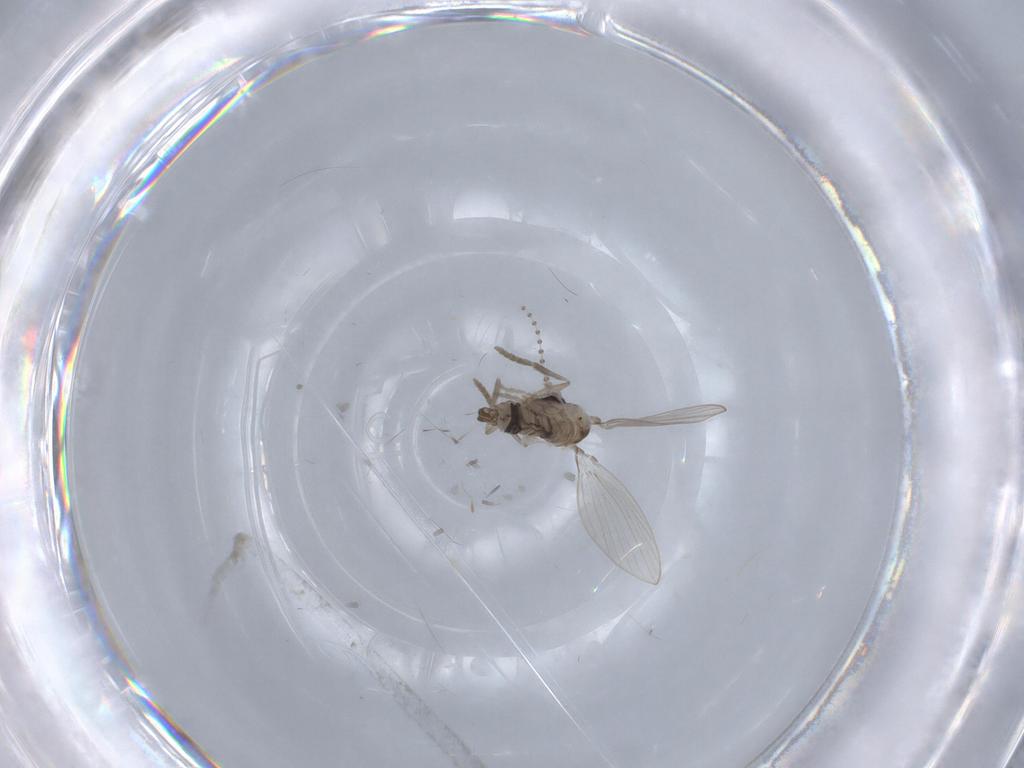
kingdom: Animalia
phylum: Arthropoda
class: Insecta
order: Diptera
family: Psychodidae
